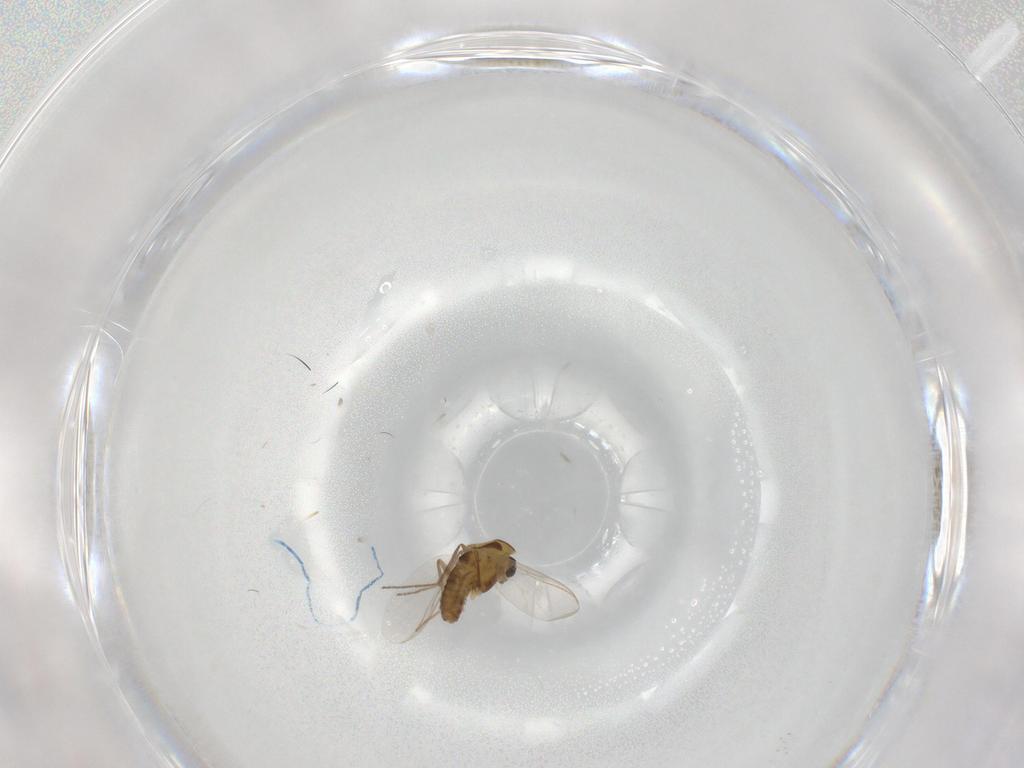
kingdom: Animalia
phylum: Arthropoda
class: Insecta
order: Diptera
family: Chironomidae
